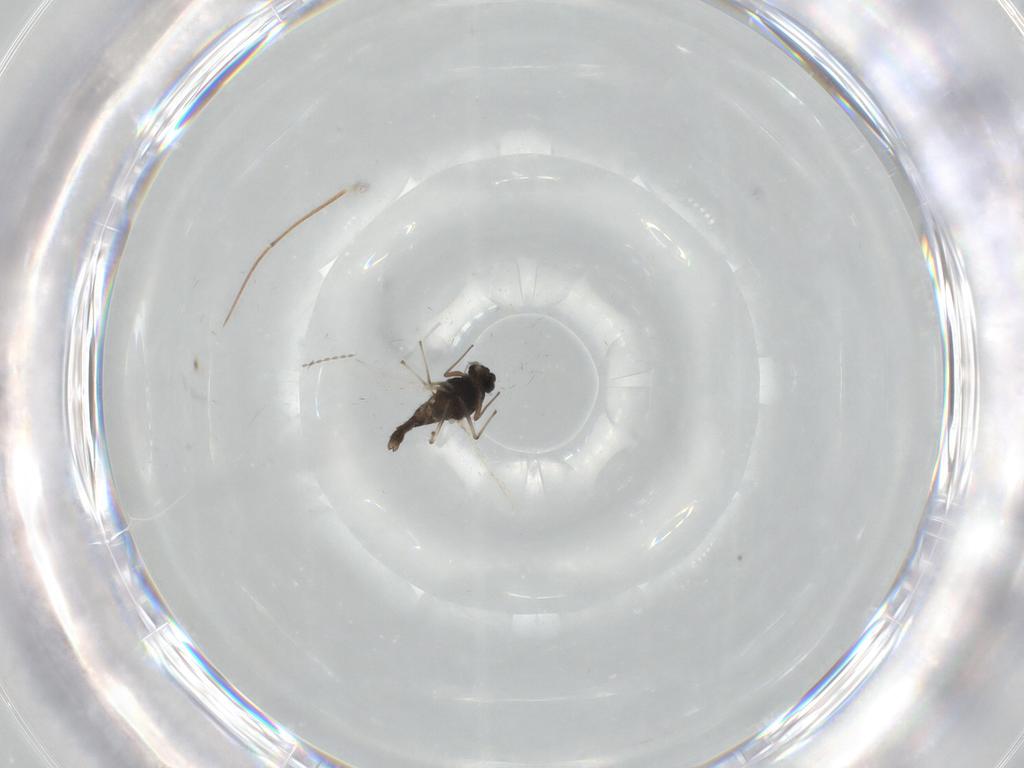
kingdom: Animalia
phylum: Arthropoda
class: Insecta
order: Diptera
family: Chironomidae
